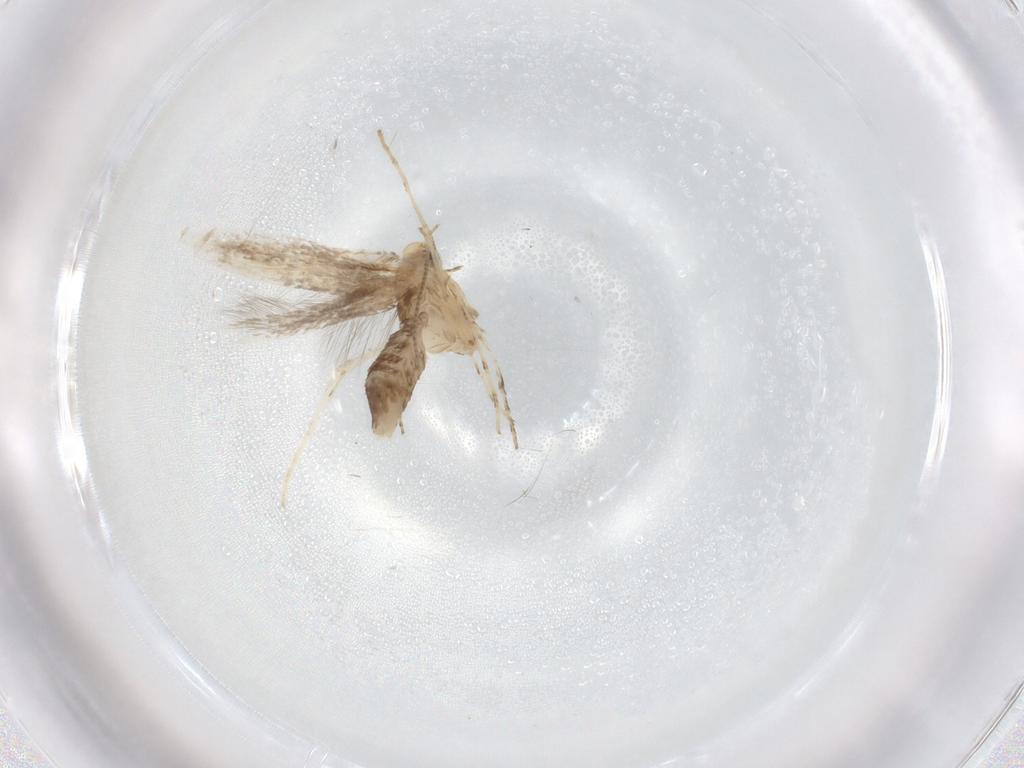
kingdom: Animalia
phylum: Arthropoda
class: Insecta
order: Lepidoptera
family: Gracillariidae
